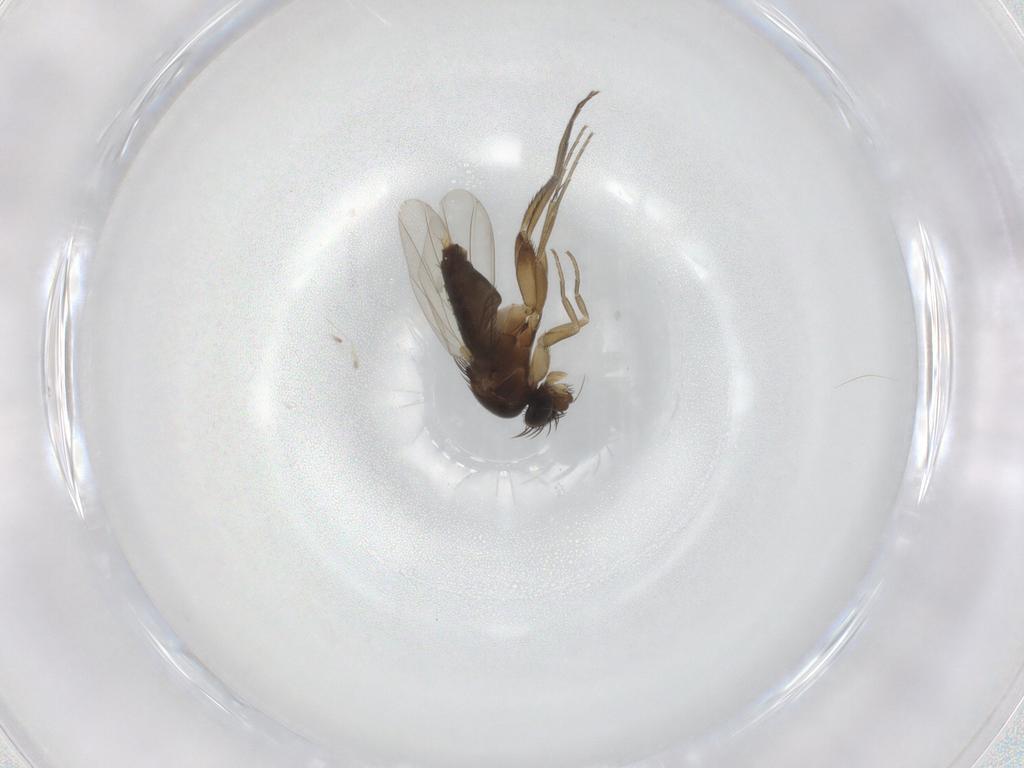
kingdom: Animalia
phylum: Arthropoda
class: Insecta
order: Diptera
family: Phoridae
